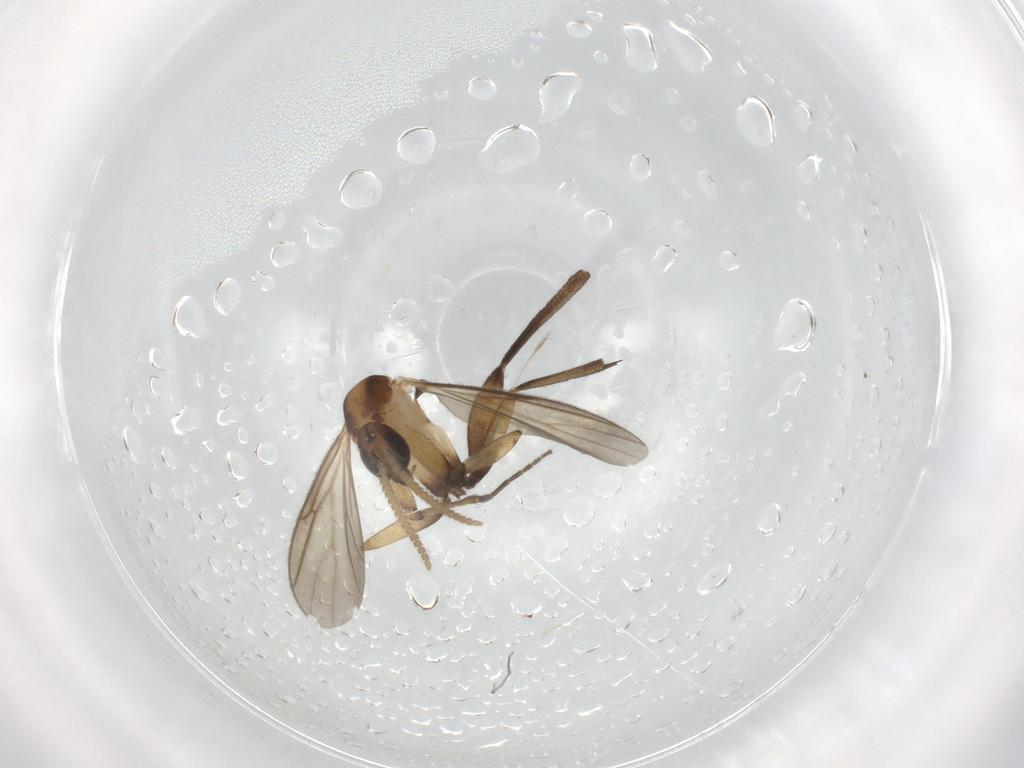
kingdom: Animalia
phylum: Arthropoda
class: Insecta
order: Diptera
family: Mycetophilidae
